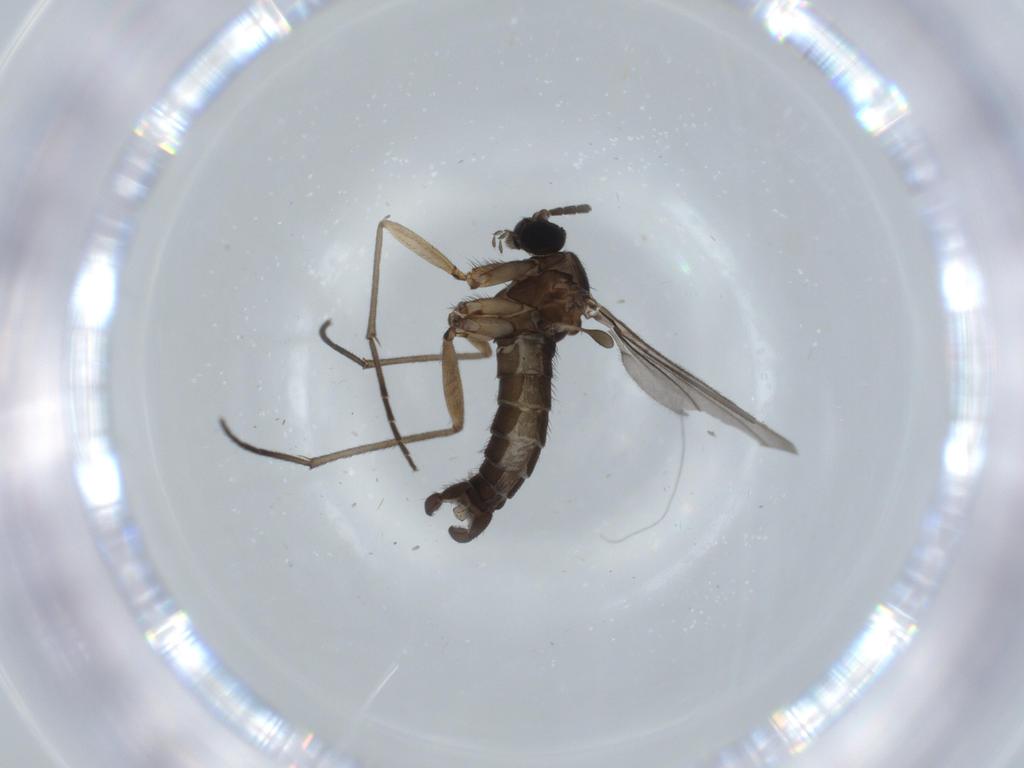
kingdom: Animalia
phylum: Arthropoda
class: Insecta
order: Diptera
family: Sciaridae
